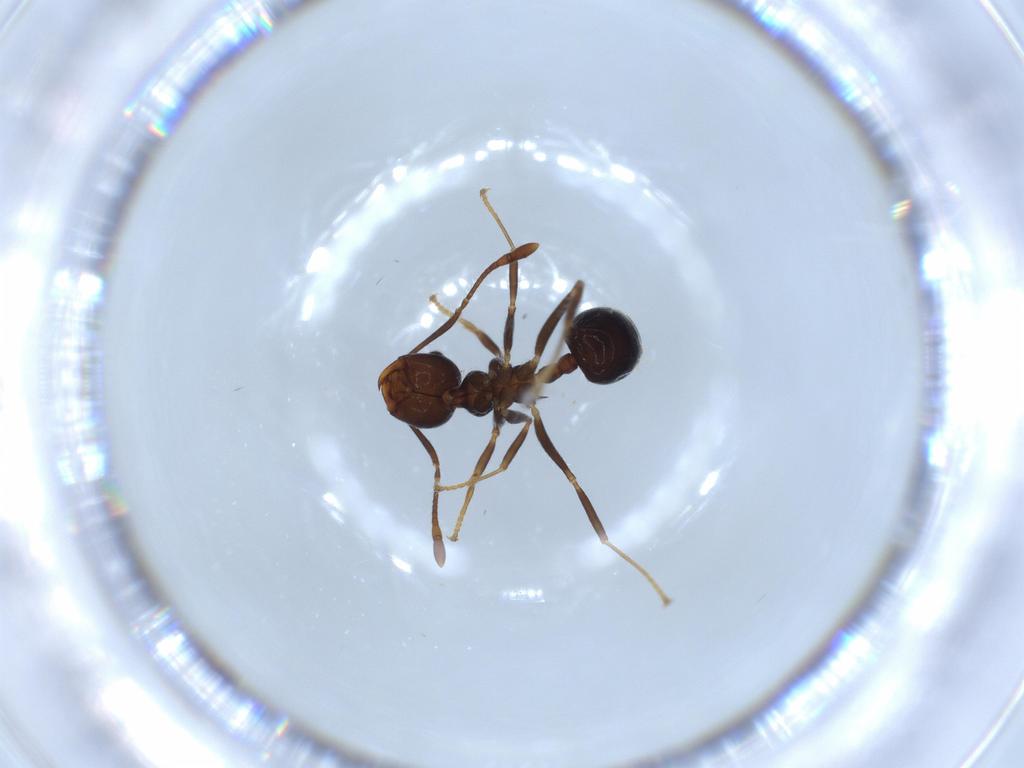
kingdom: Animalia
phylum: Arthropoda
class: Insecta
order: Hymenoptera
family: Formicidae
